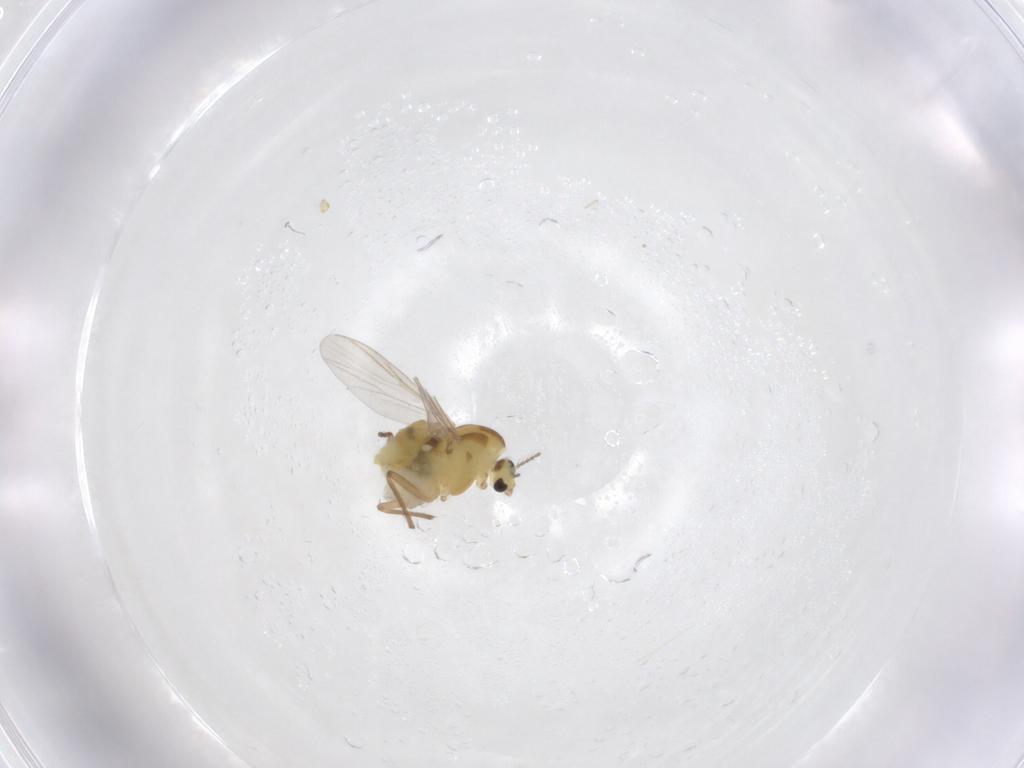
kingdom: Animalia
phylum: Arthropoda
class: Insecta
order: Diptera
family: Chironomidae
